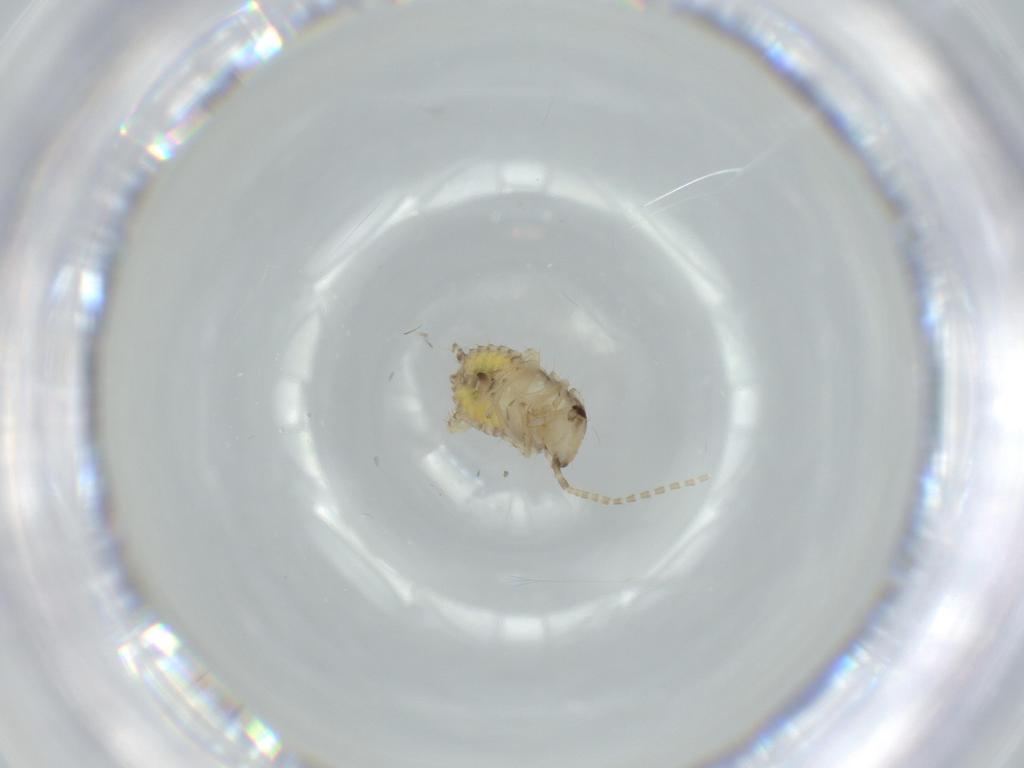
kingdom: Animalia
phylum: Arthropoda
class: Insecta
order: Blattodea
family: Ectobiidae
